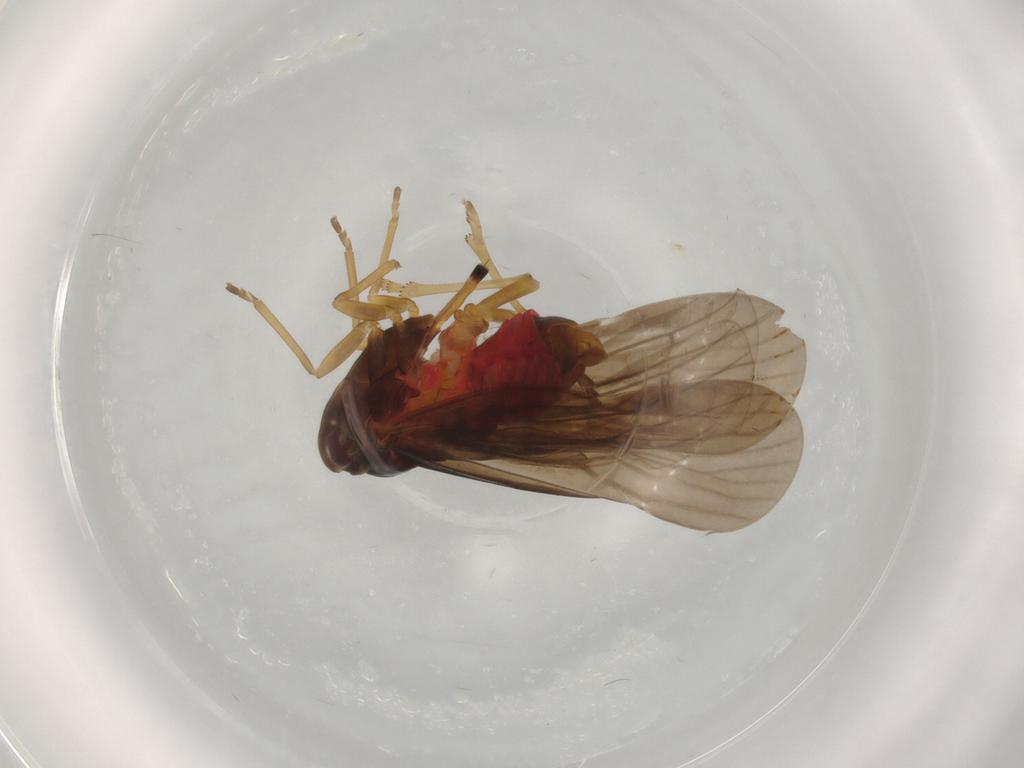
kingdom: Animalia
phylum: Arthropoda
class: Insecta
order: Hemiptera
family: Derbidae
